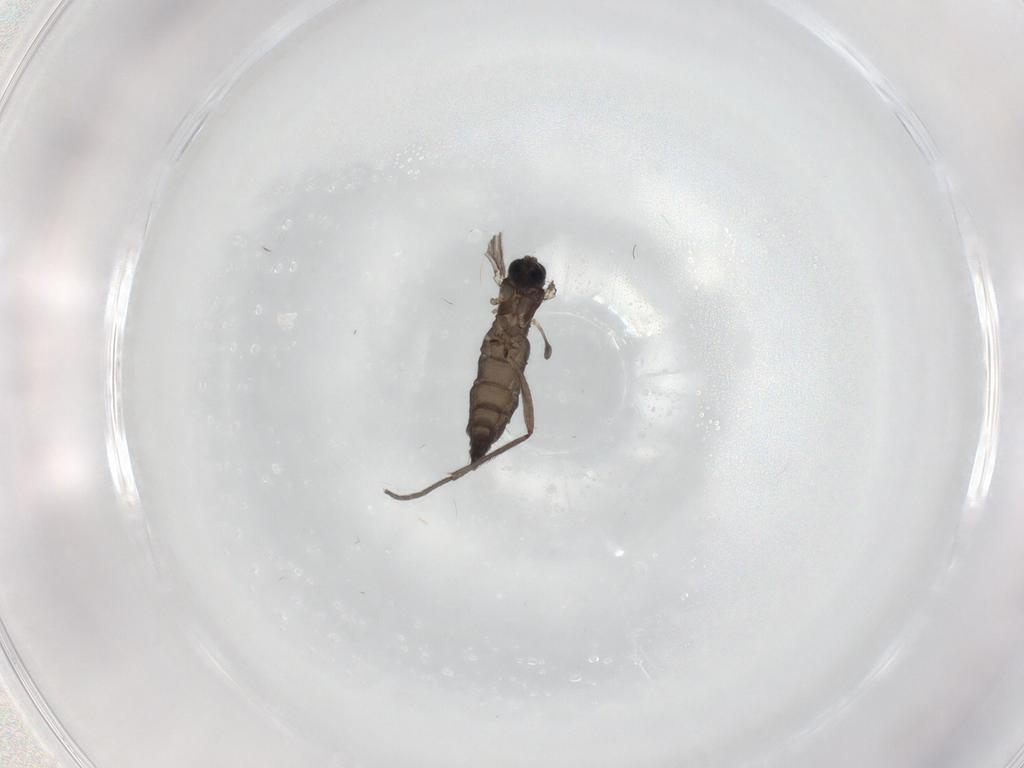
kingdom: Animalia
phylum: Arthropoda
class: Insecta
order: Diptera
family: Sciaridae
